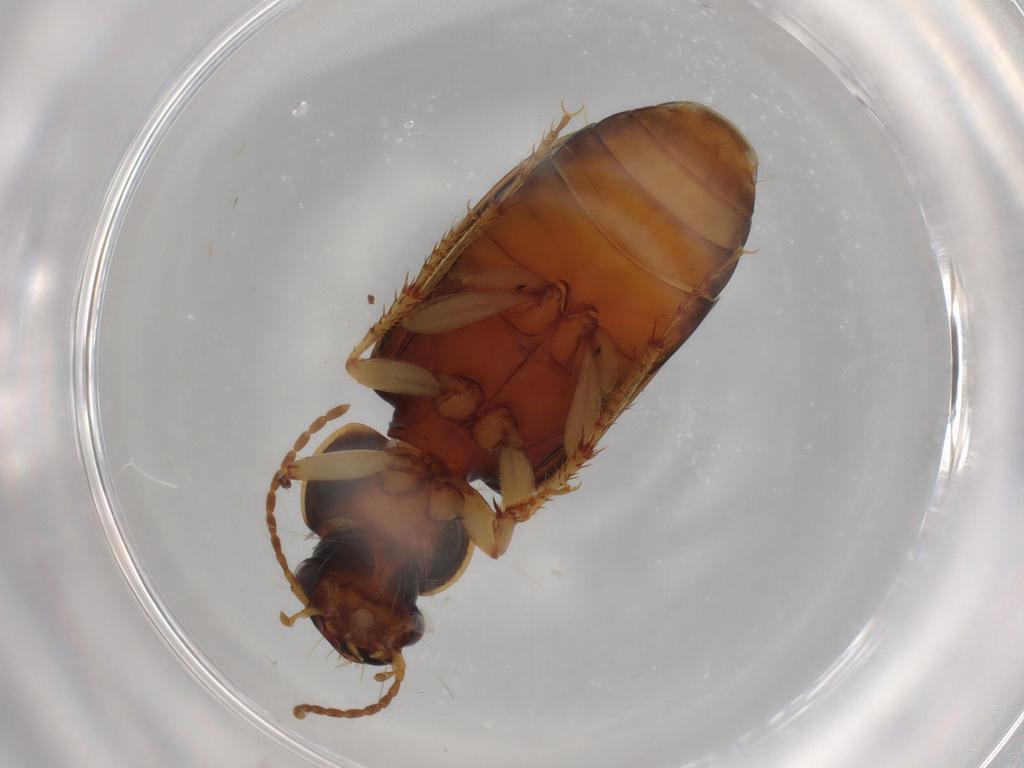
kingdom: Animalia
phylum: Arthropoda
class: Insecta
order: Coleoptera
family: Carabidae
